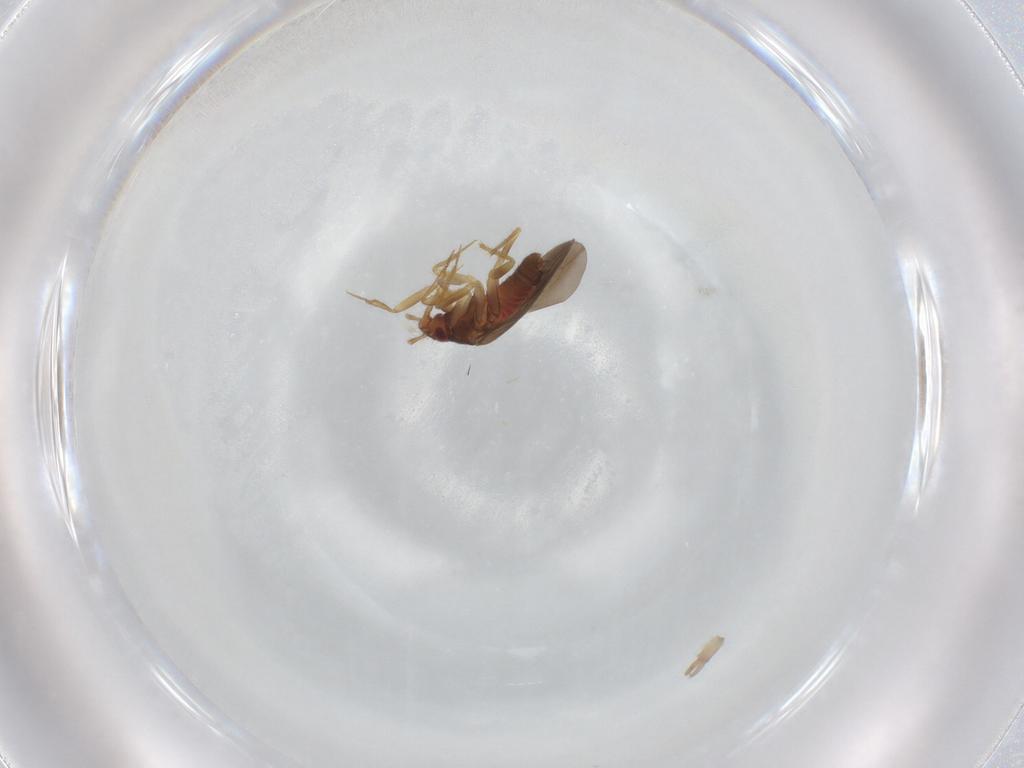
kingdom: Animalia
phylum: Arthropoda
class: Insecta
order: Hemiptera
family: Ceratocombidae
